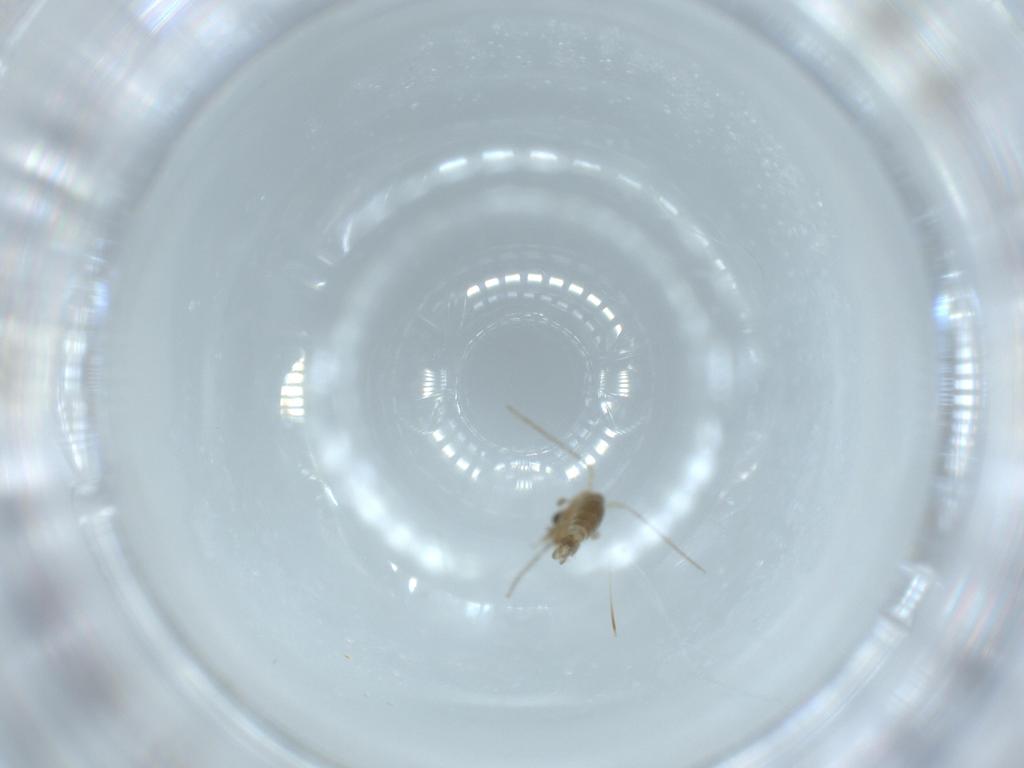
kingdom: Animalia
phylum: Arthropoda
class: Insecta
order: Diptera
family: Psychodidae
